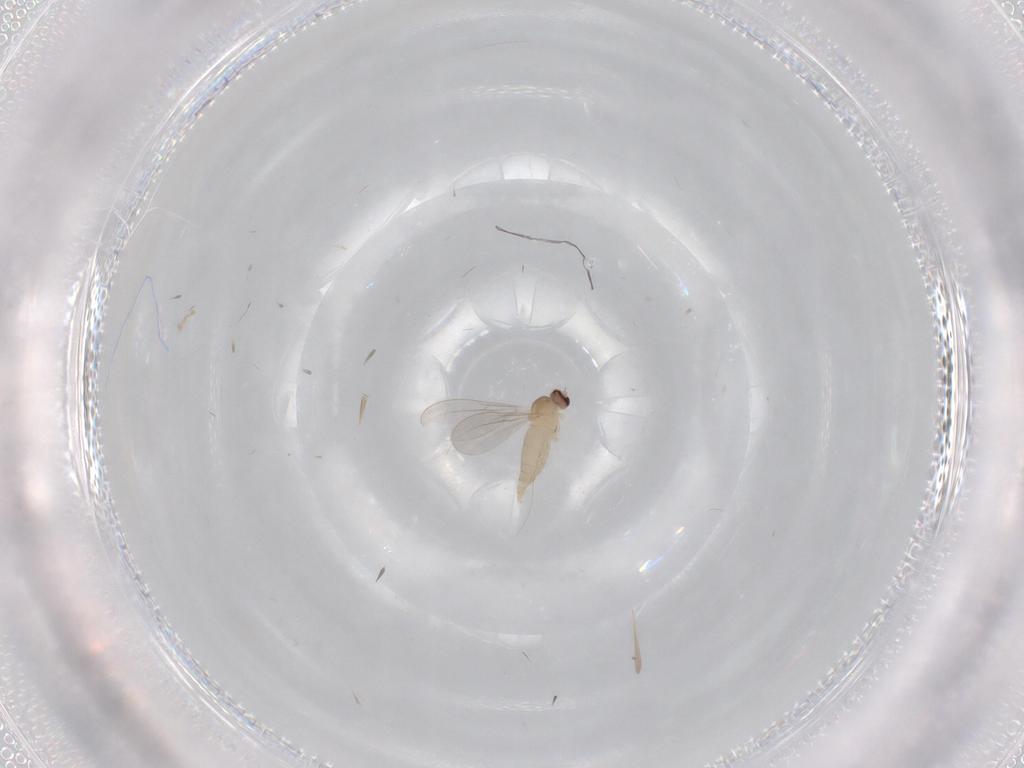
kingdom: Animalia
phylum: Arthropoda
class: Insecta
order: Diptera
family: Cecidomyiidae
